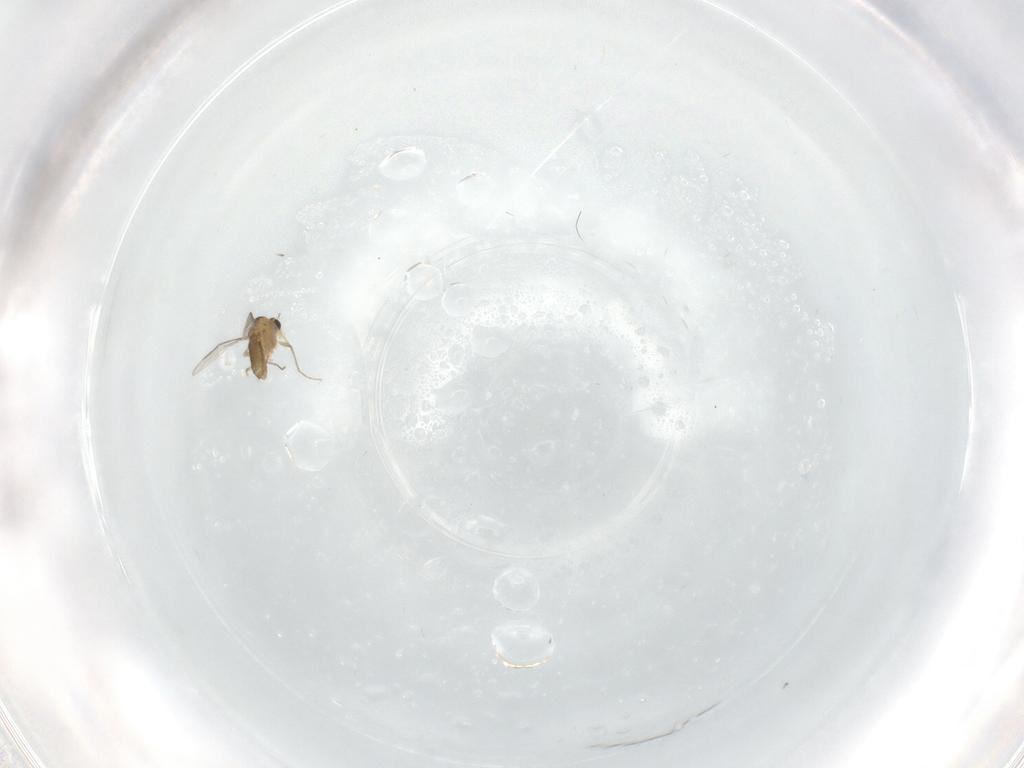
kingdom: Animalia
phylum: Arthropoda
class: Insecta
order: Diptera
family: Chironomidae
